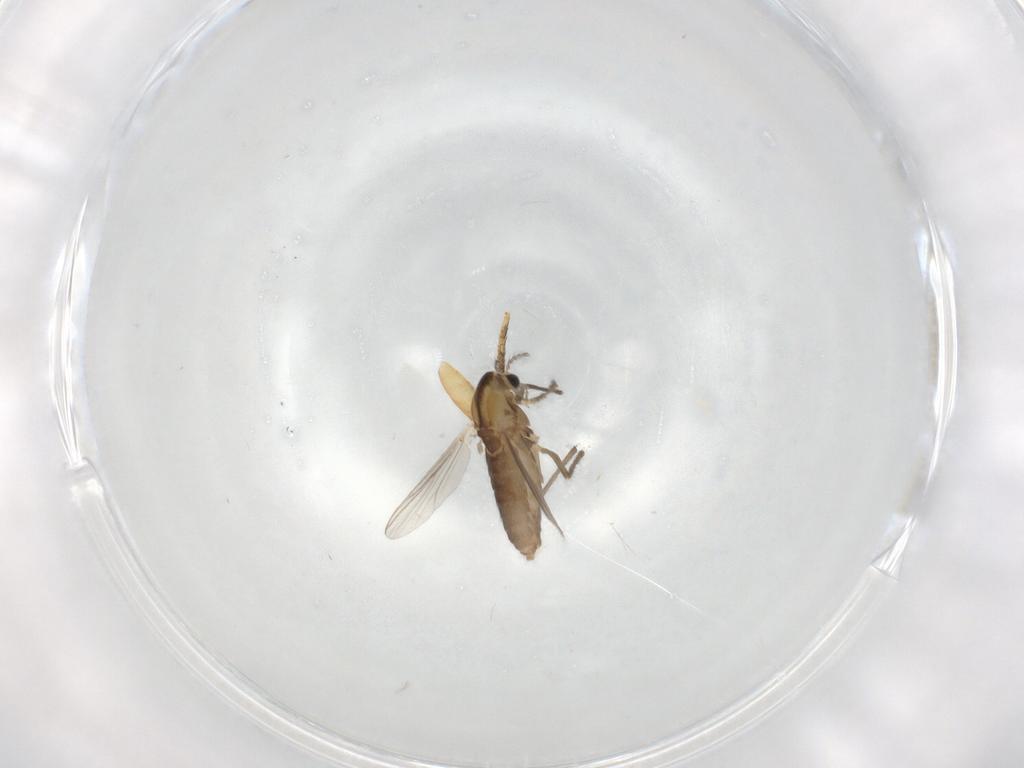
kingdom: Animalia
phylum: Arthropoda
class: Insecta
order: Diptera
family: Chironomidae
